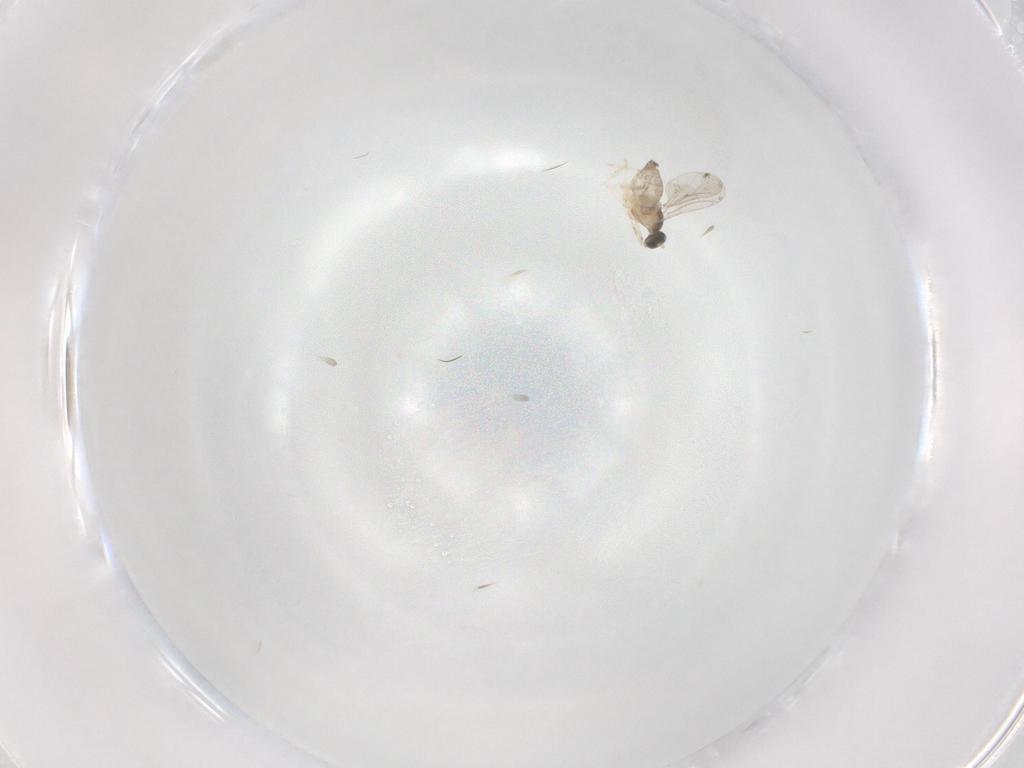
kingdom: Animalia
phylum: Arthropoda
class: Insecta
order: Diptera
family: Cecidomyiidae
